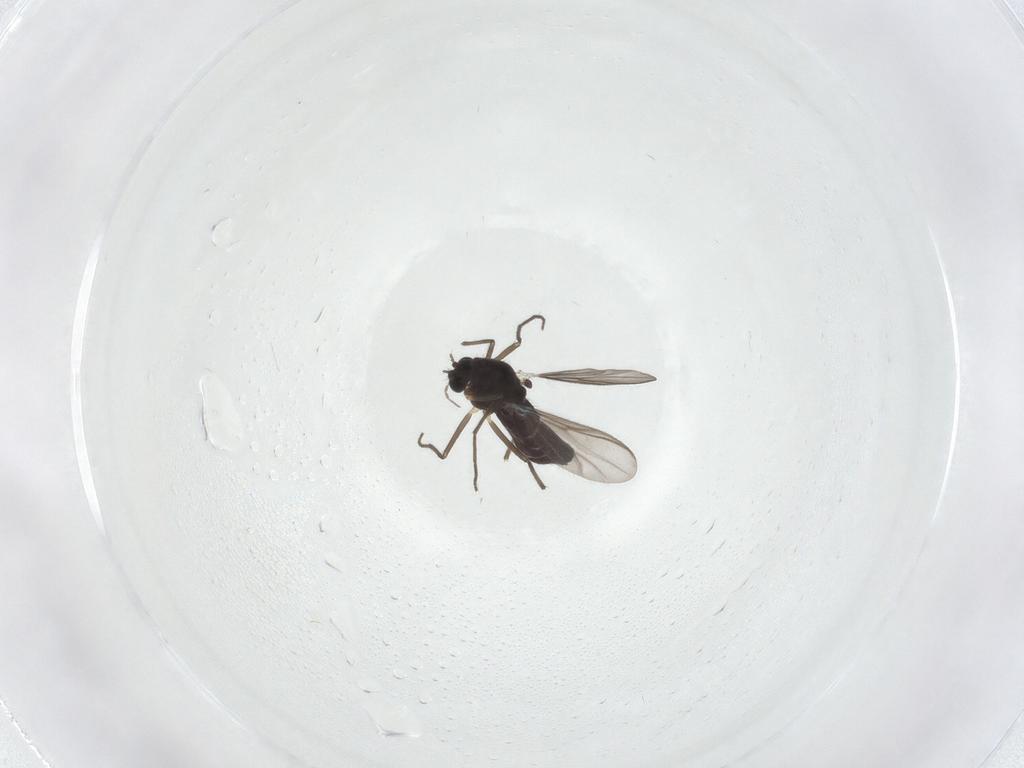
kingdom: Animalia
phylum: Arthropoda
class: Insecta
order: Diptera
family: Chironomidae
